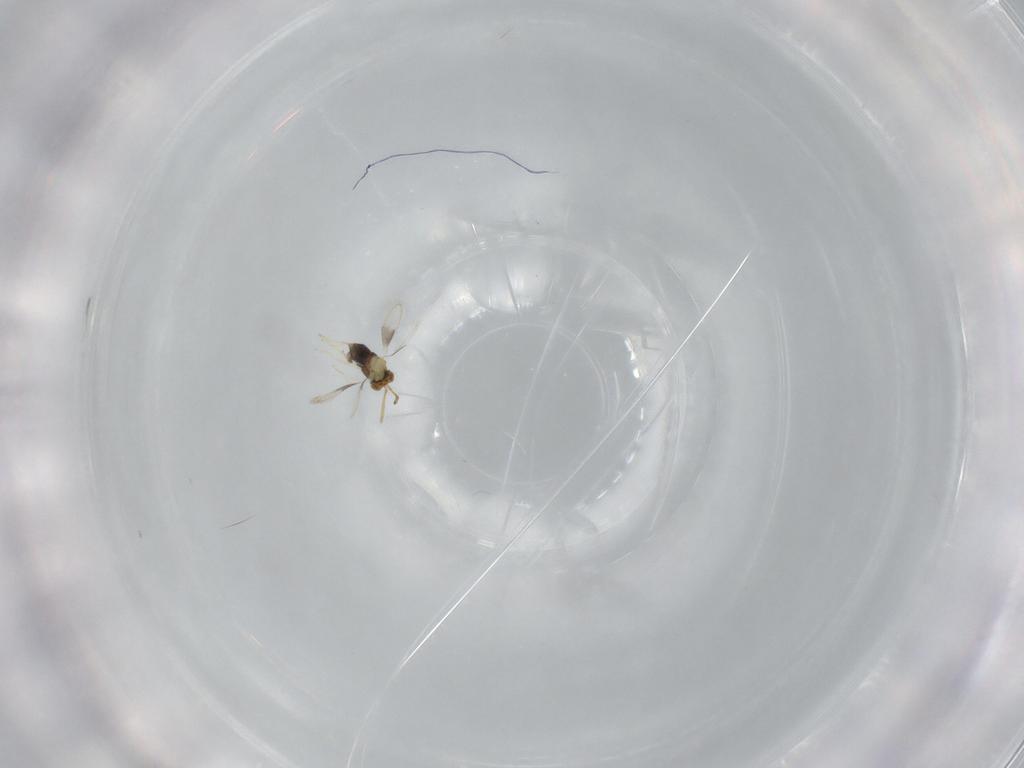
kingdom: Animalia
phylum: Arthropoda
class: Insecta
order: Hymenoptera
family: Aphelinidae
